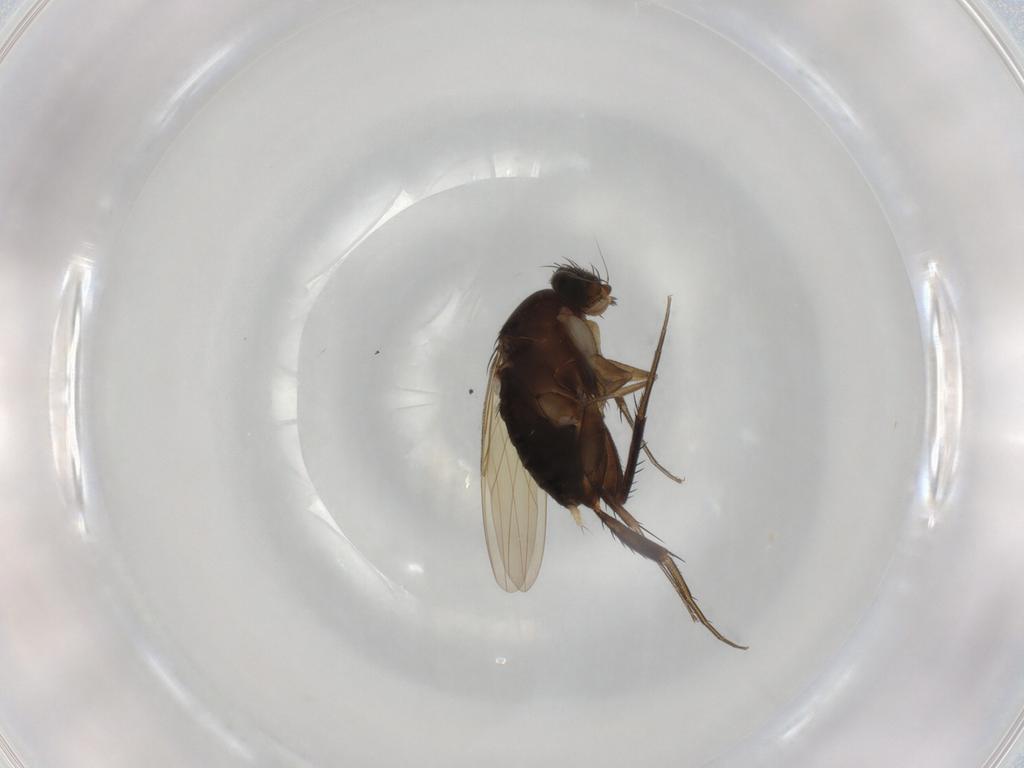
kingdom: Animalia
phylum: Arthropoda
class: Insecta
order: Diptera
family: Phoridae
